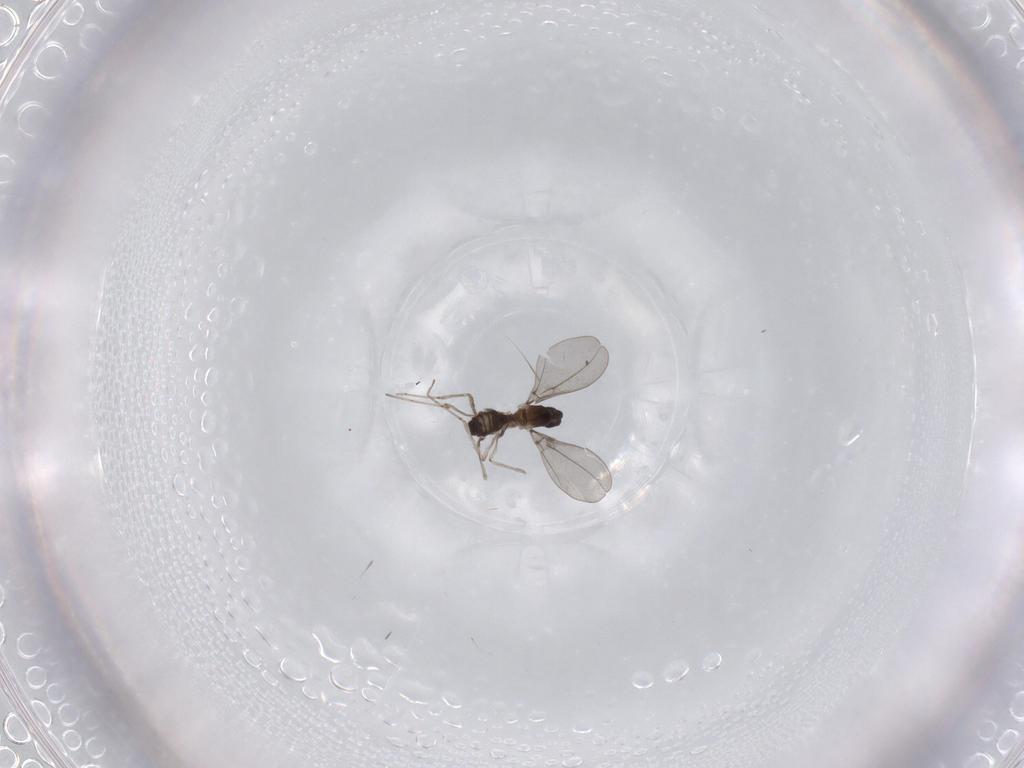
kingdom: Animalia
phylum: Arthropoda
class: Insecta
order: Diptera
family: Cecidomyiidae
